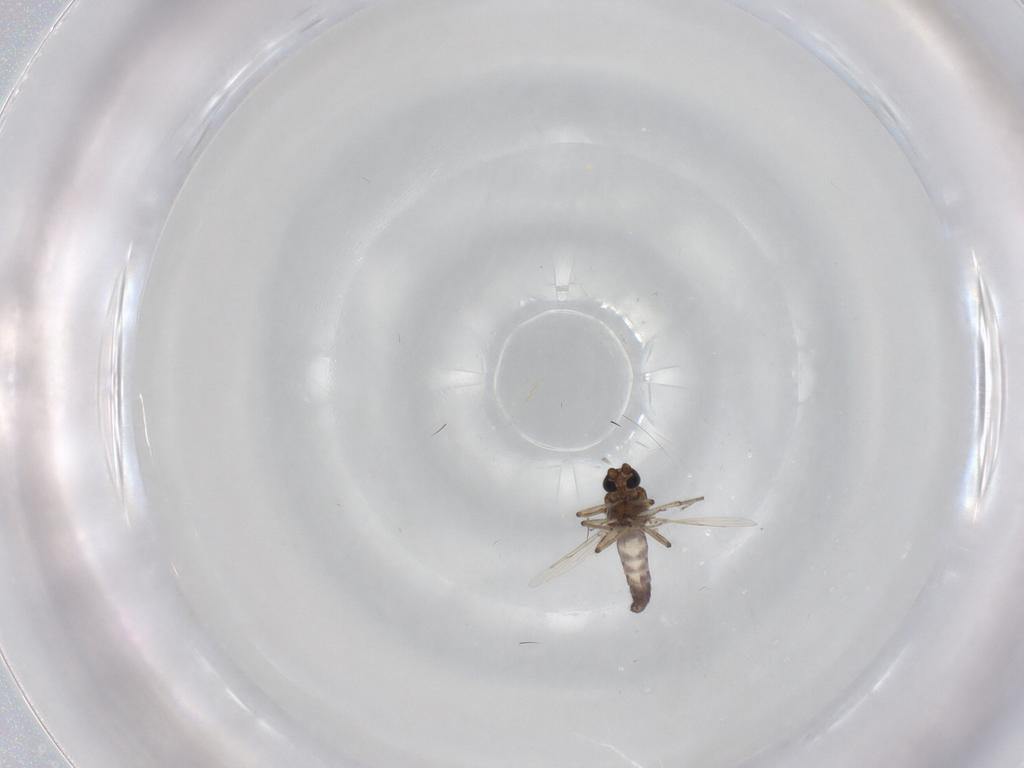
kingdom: Animalia
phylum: Arthropoda
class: Insecta
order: Diptera
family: Ceratopogonidae
